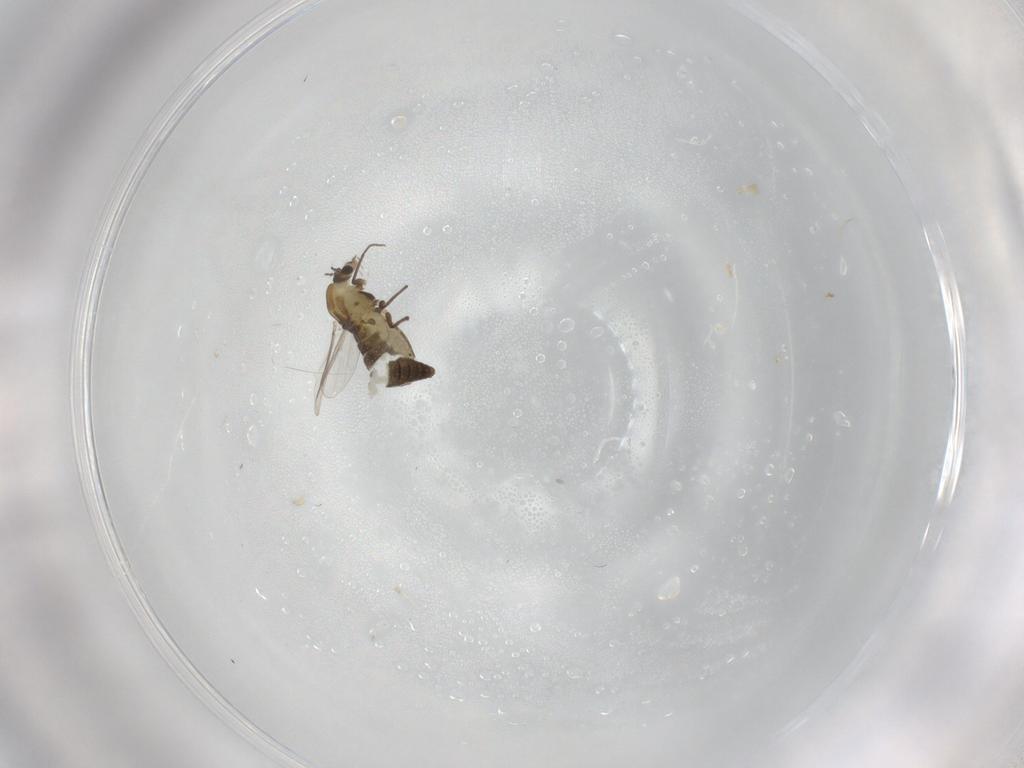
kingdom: Animalia
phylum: Arthropoda
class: Insecta
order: Diptera
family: Chironomidae
